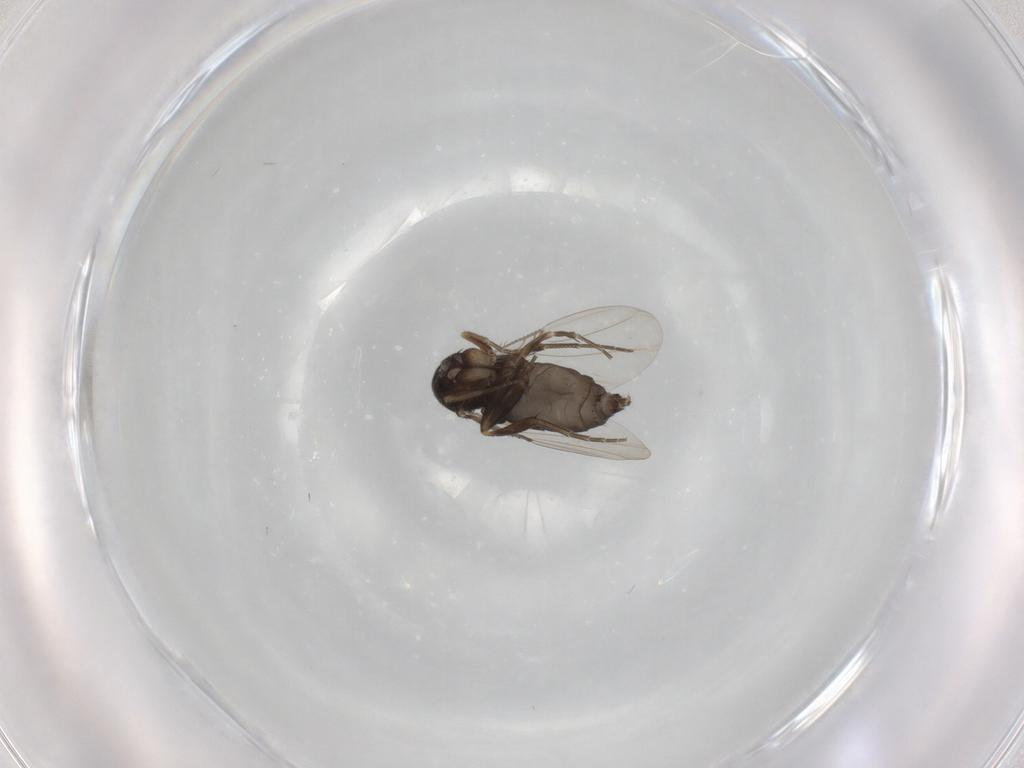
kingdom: Animalia
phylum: Arthropoda
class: Insecta
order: Diptera
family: Phoridae
